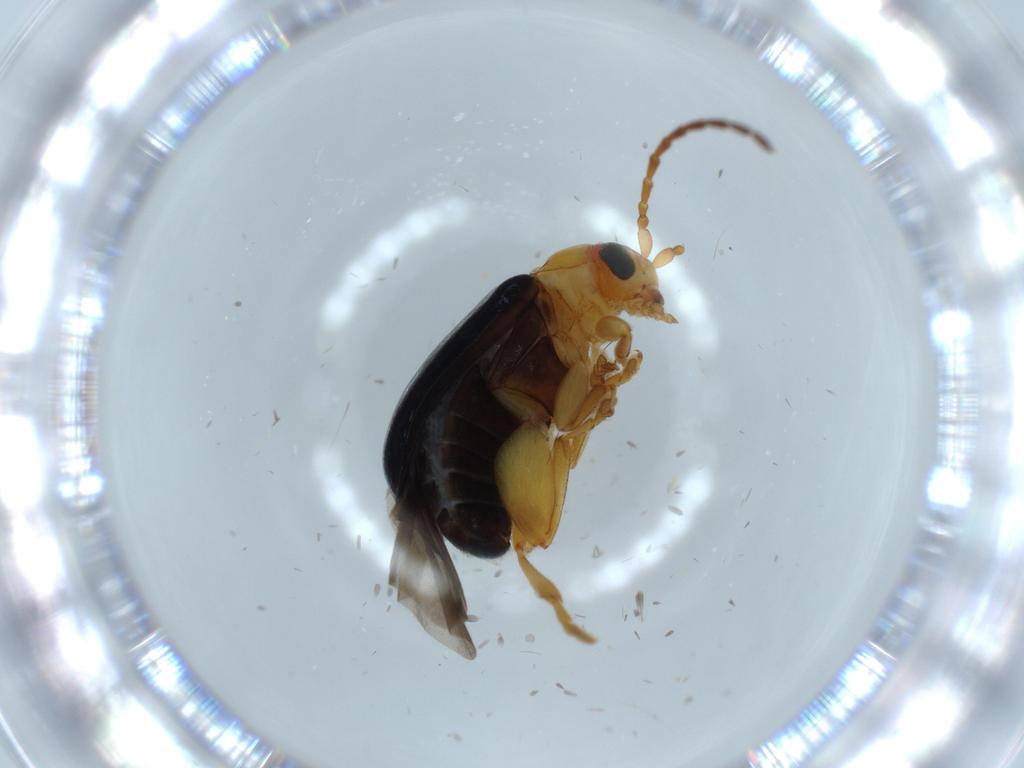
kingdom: Animalia
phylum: Arthropoda
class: Insecta
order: Coleoptera
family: Chrysomelidae
